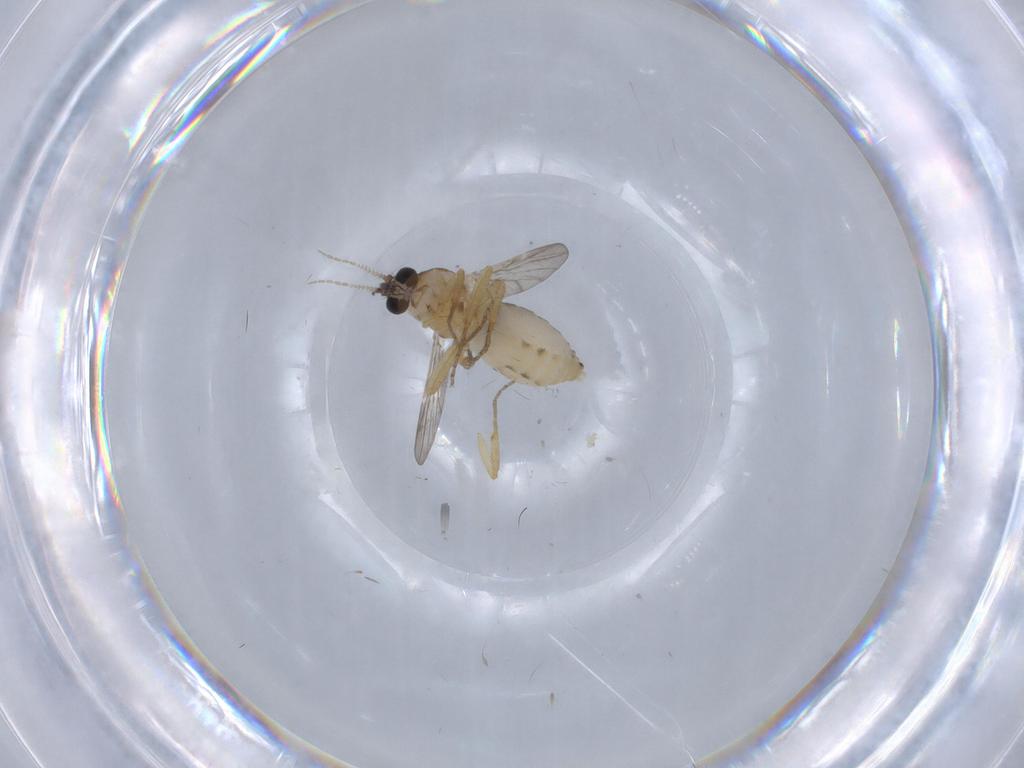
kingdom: Animalia
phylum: Arthropoda
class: Insecta
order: Diptera
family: Ceratopogonidae
